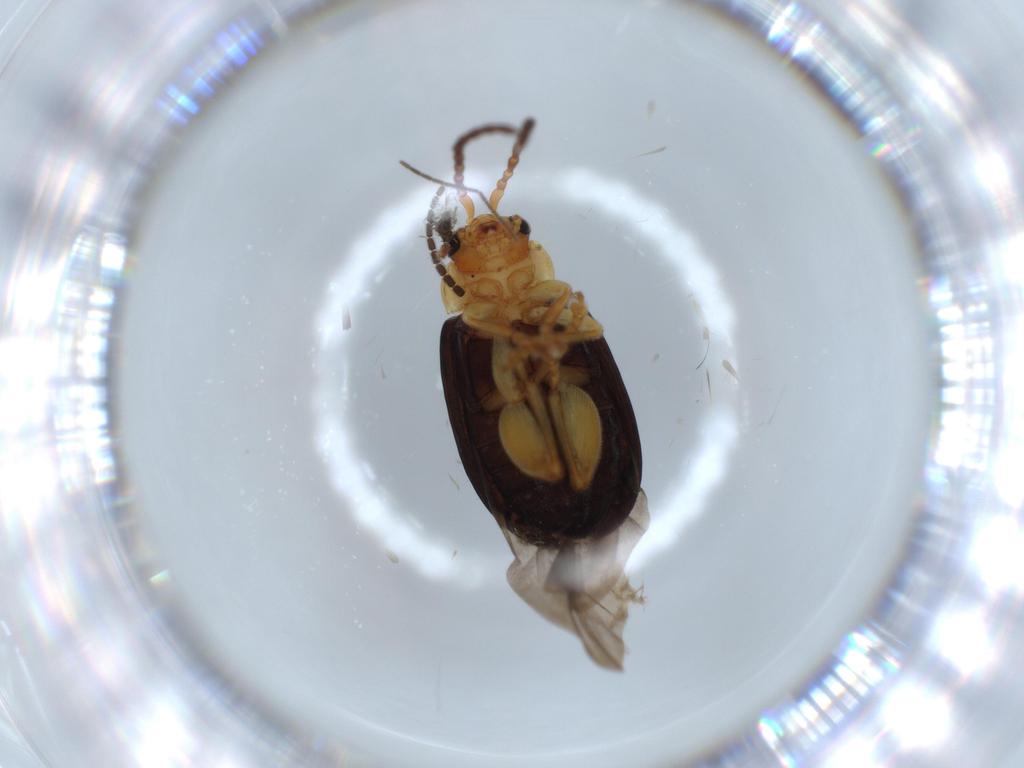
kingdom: Animalia
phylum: Arthropoda
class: Insecta
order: Coleoptera
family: Chrysomelidae
